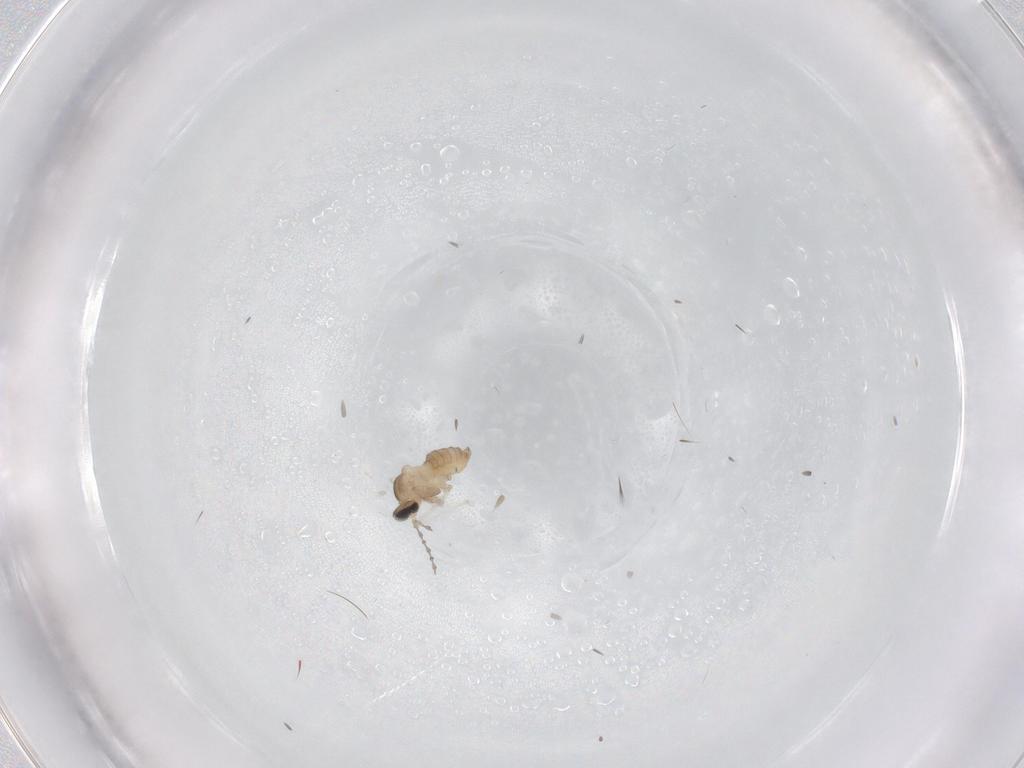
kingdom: Animalia
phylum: Arthropoda
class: Insecta
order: Diptera
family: Cecidomyiidae
